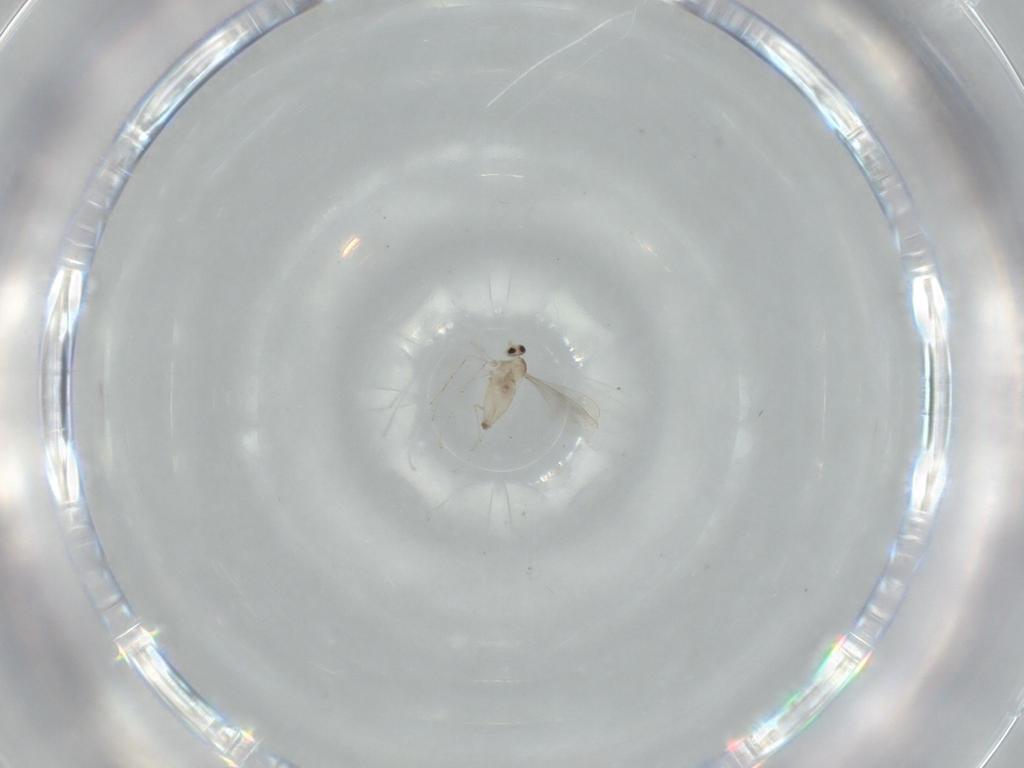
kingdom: Animalia
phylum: Arthropoda
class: Insecta
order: Diptera
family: Cecidomyiidae
